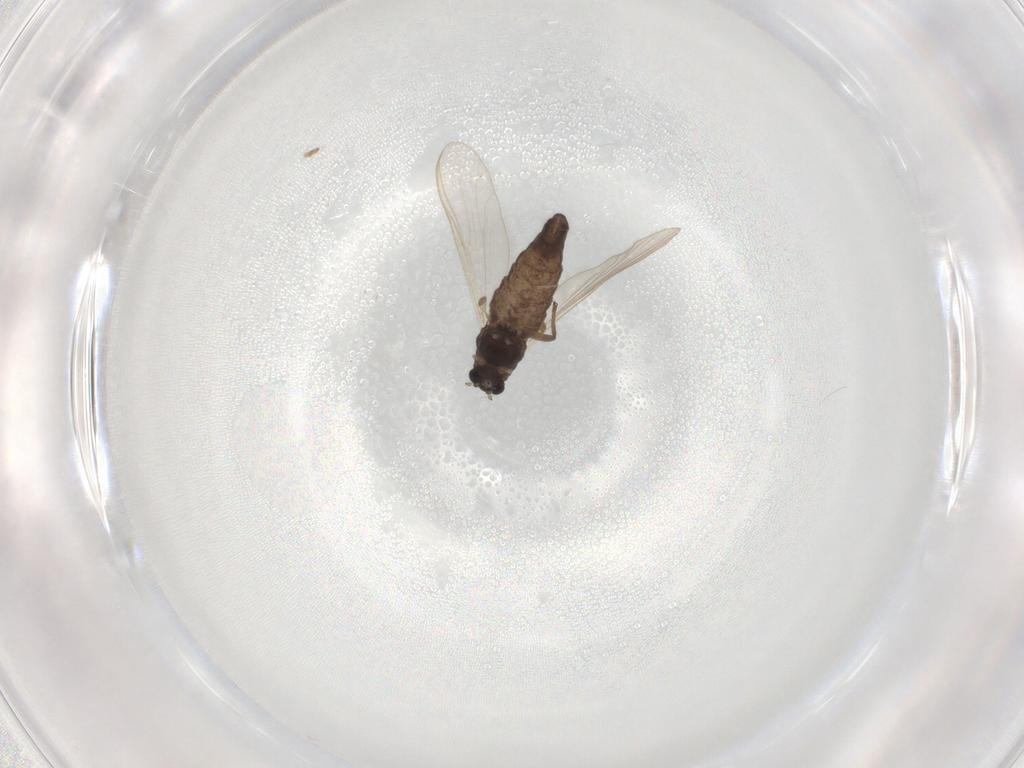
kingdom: Animalia
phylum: Arthropoda
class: Insecta
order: Diptera
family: Chironomidae
